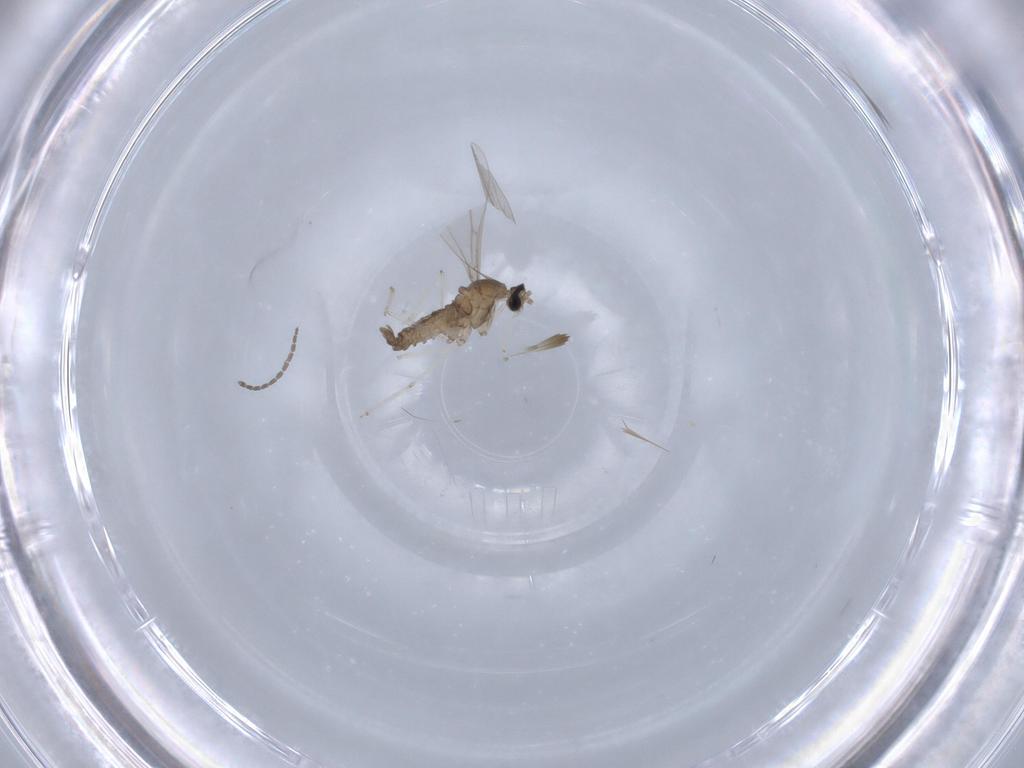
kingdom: Animalia
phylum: Arthropoda
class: Insecta
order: Diptera
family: Sciaridae
